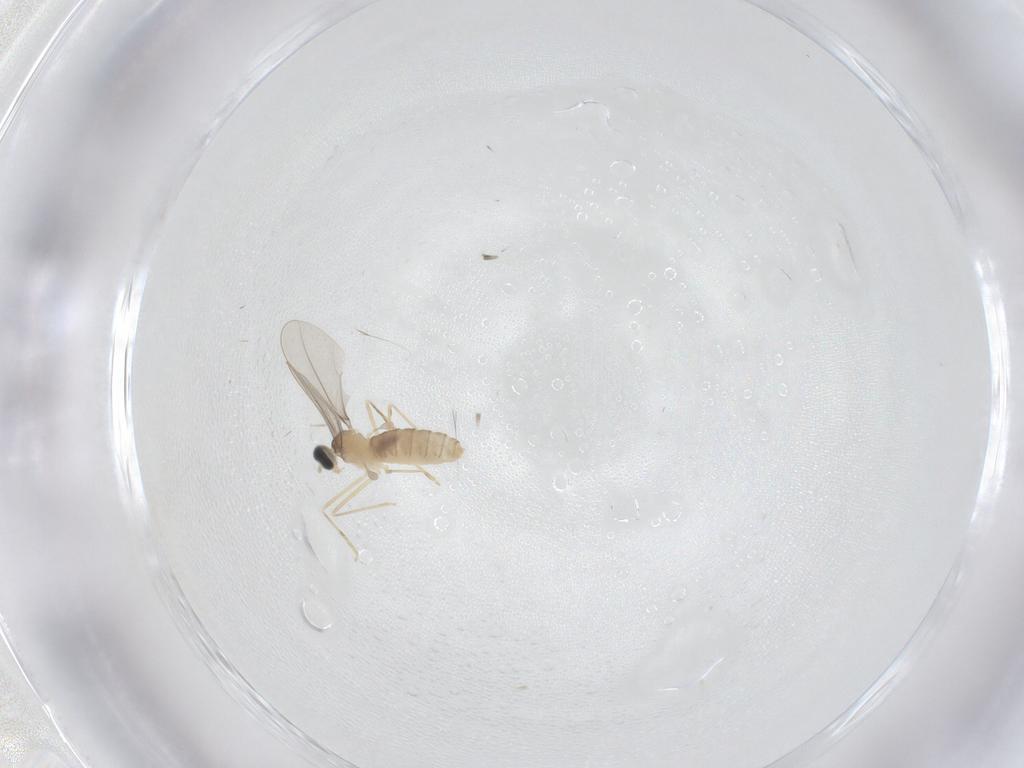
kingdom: Animalia
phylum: Arthropoda
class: Insecta
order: Diptera
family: Cecidomyiidae
